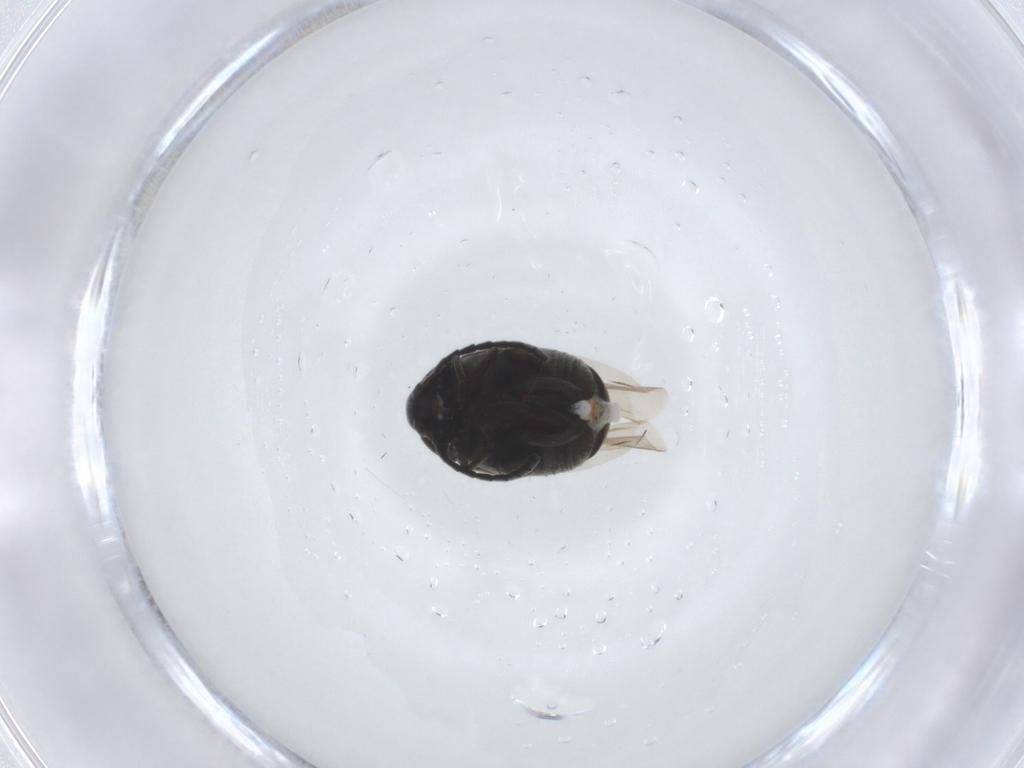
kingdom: Animalia
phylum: Arthropoda
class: Insecta
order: Coleoptera
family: Chrysomelidae
